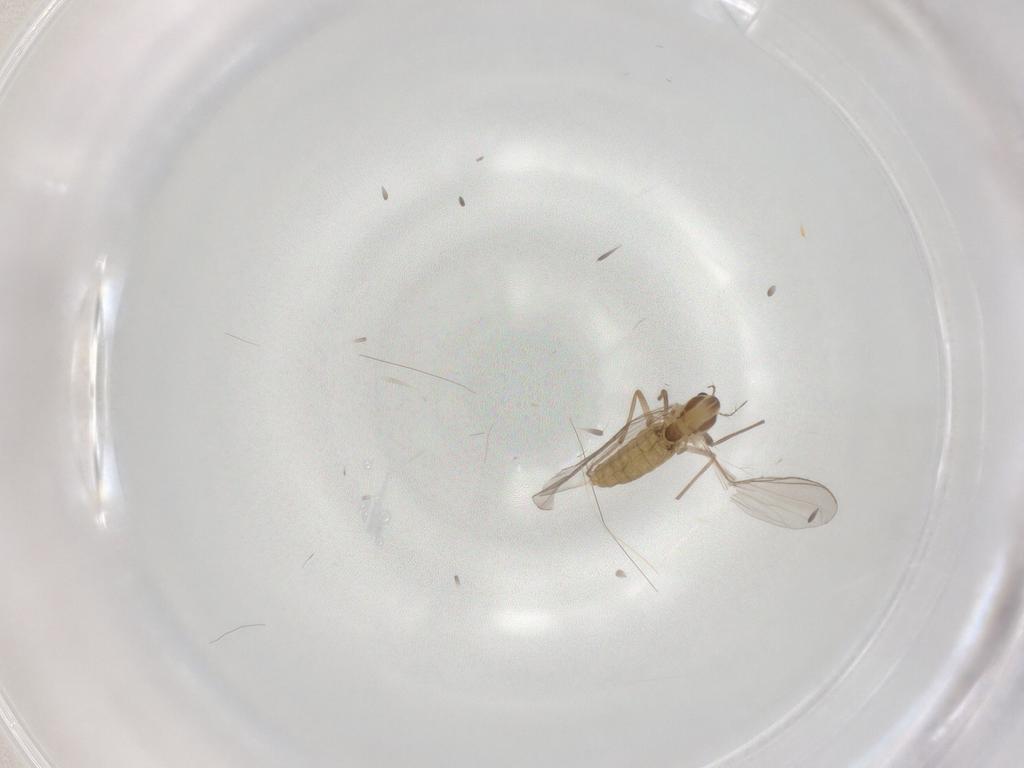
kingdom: Animalia
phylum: Arthropoda
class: Insecta
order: Diptera
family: Chironomidae
